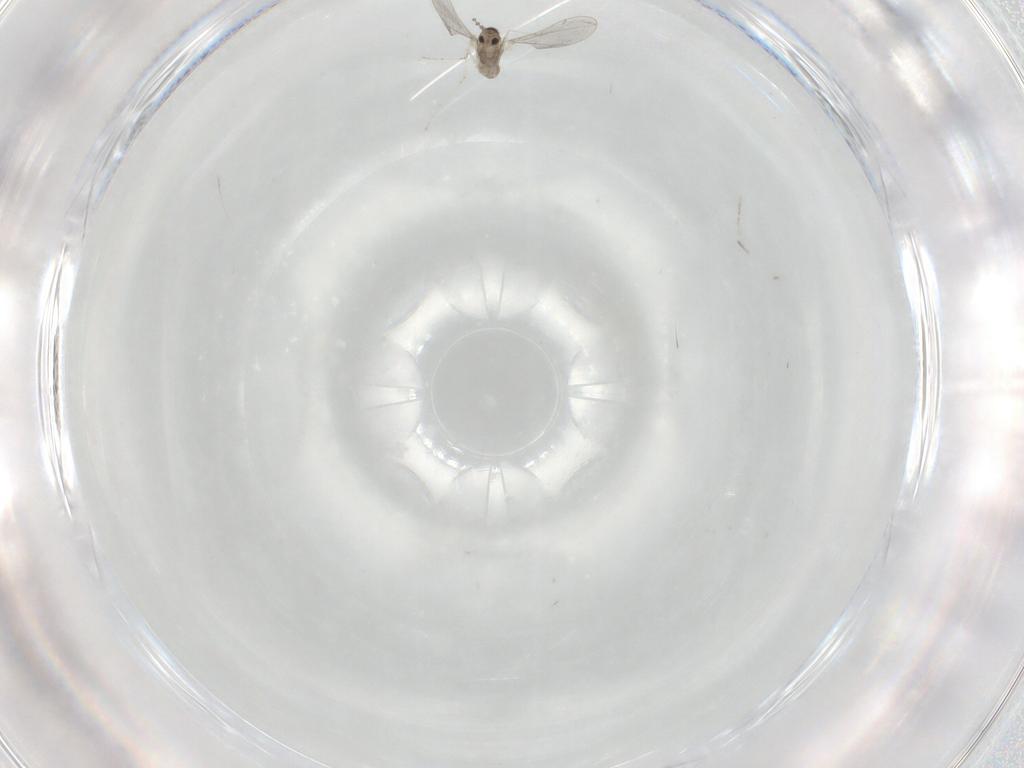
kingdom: Animalia
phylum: Arthropoda
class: Insecta
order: Diptera
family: Cecidomyiidae
